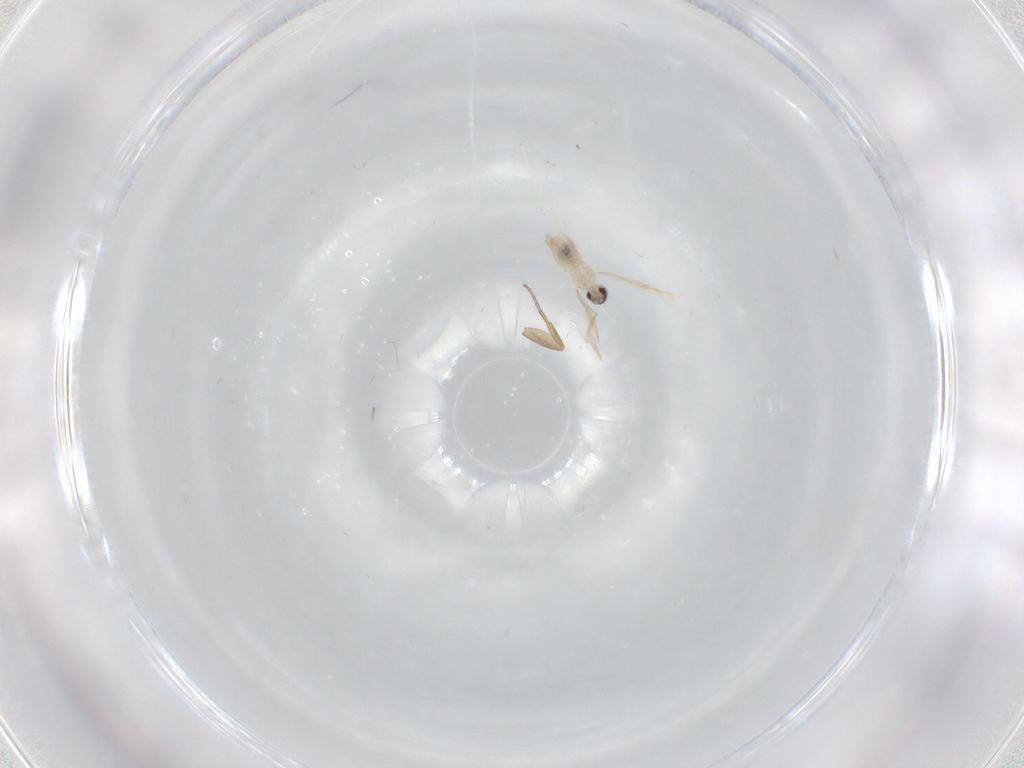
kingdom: Animalia
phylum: Arthropoda
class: Insecta
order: Diptera
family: Cecidomyiidae
